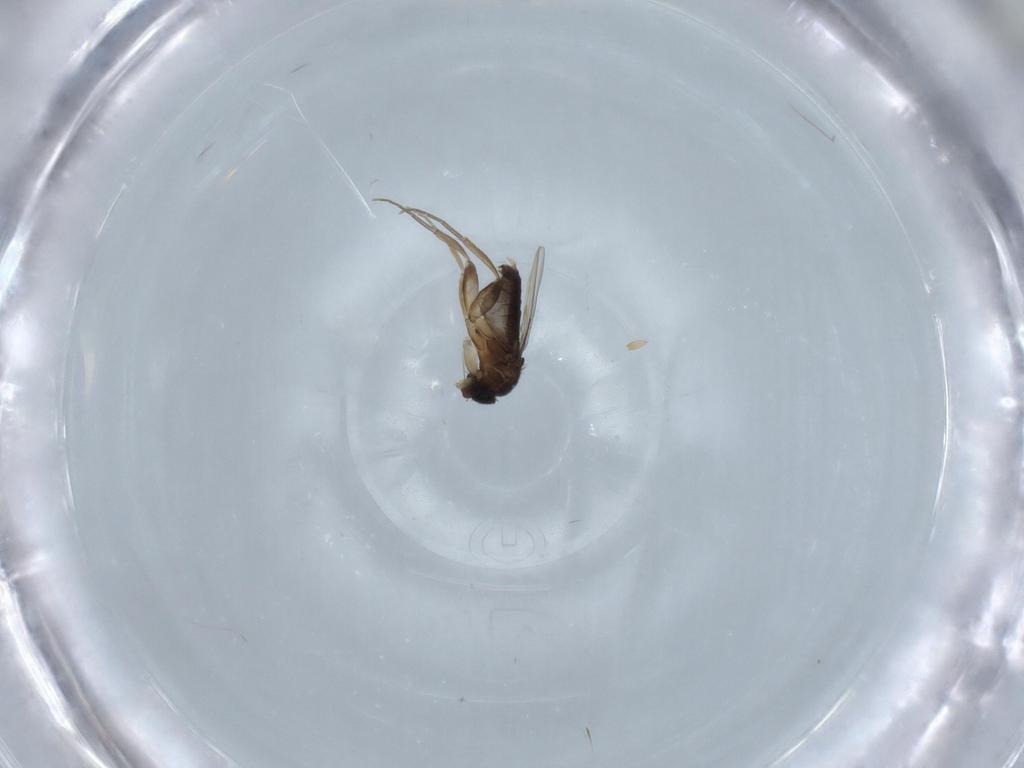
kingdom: Animalia
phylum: Arthropoda
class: Insecta
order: Diptera
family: Phoridae
